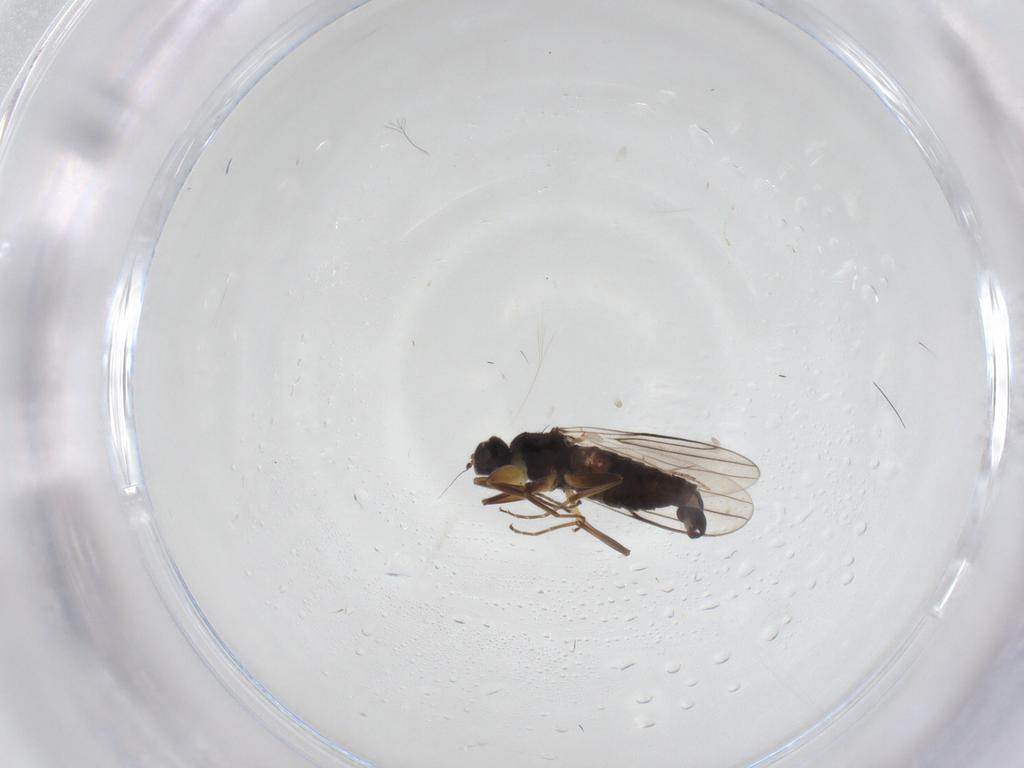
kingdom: Animalia
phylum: Arthropoda
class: Insecta
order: Diptera
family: Hybotidae
